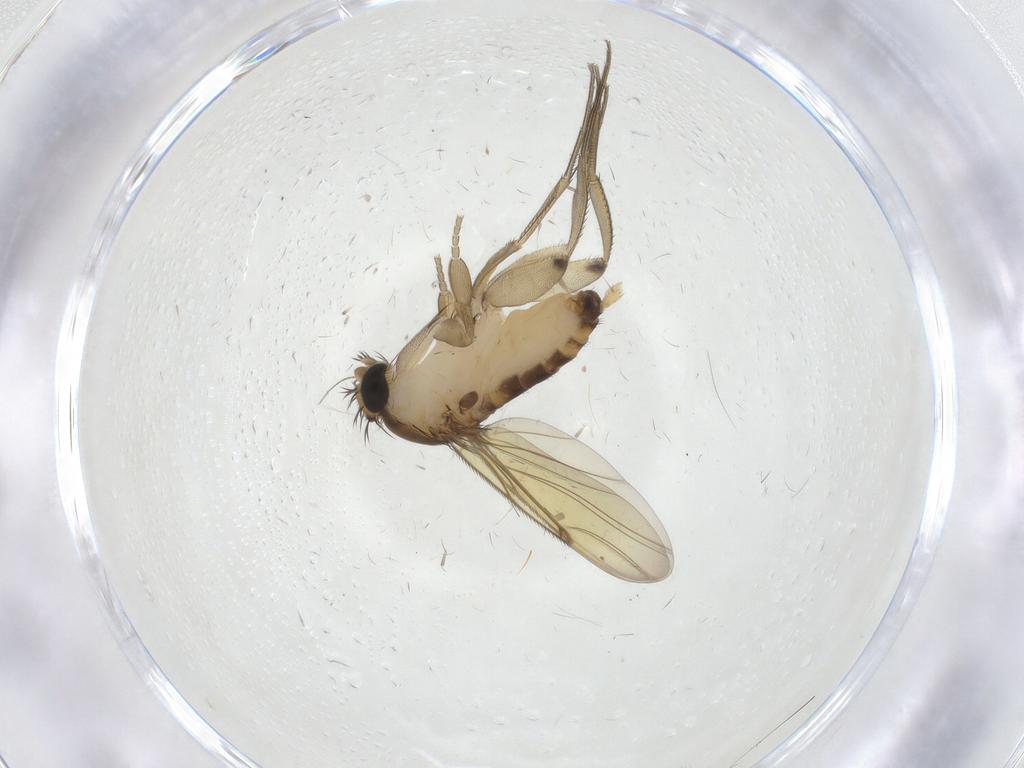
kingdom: Animalia
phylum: Arthropoda
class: Insecta
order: Diptera
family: Phoridae
